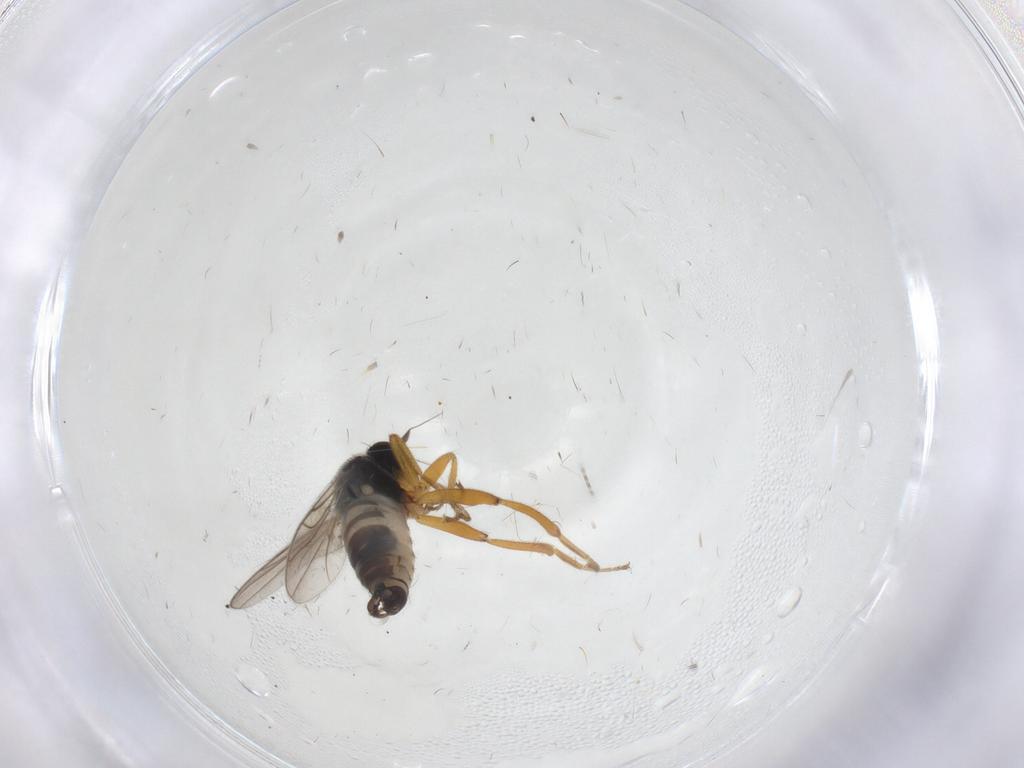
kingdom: Animalia
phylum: Arthropoda
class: Insecta
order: Diptera
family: Hybotidae
